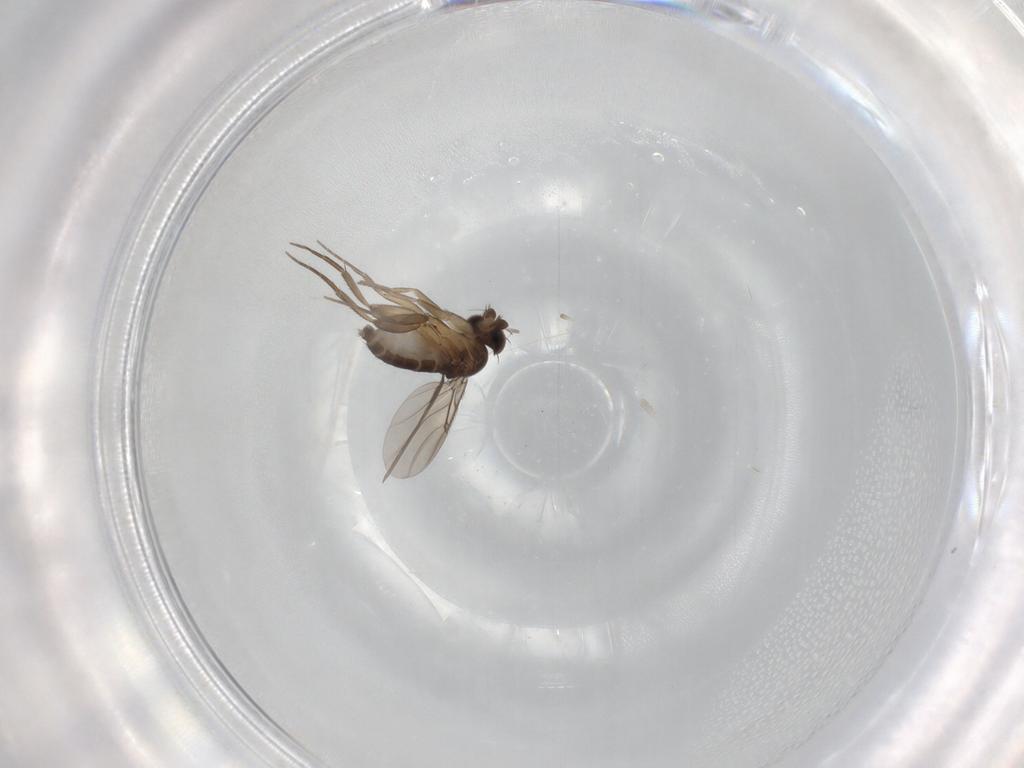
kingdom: Animalia
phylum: Arthropoda
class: Insecta
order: Diptera
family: Phoridae
